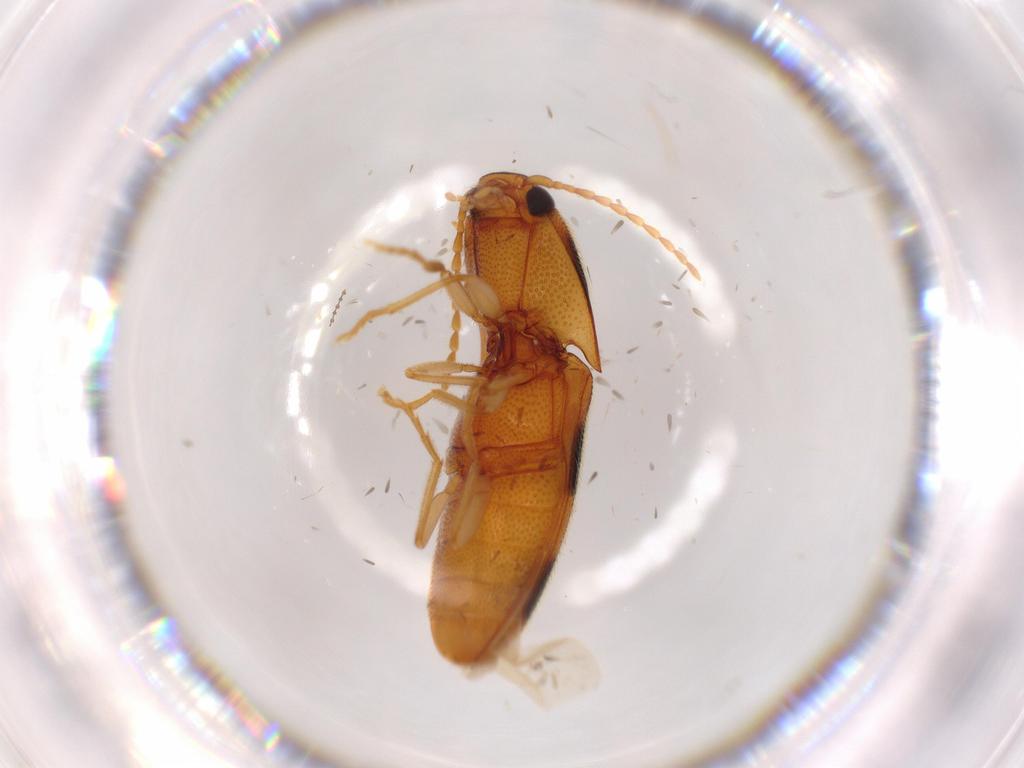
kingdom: Animalia
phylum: Arthropoda
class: Insecta
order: Coleoptera
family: Elateridae
